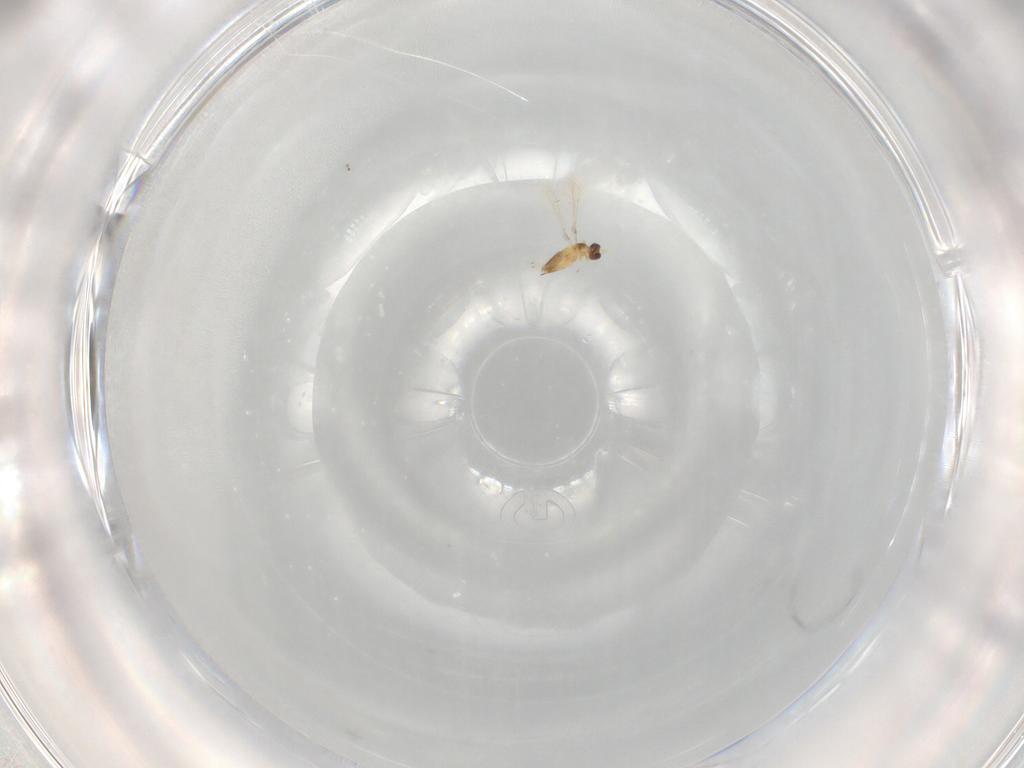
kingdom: Animalia
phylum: Arthropoda
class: Insecta
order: Hymenoptera
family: Mymaridae
